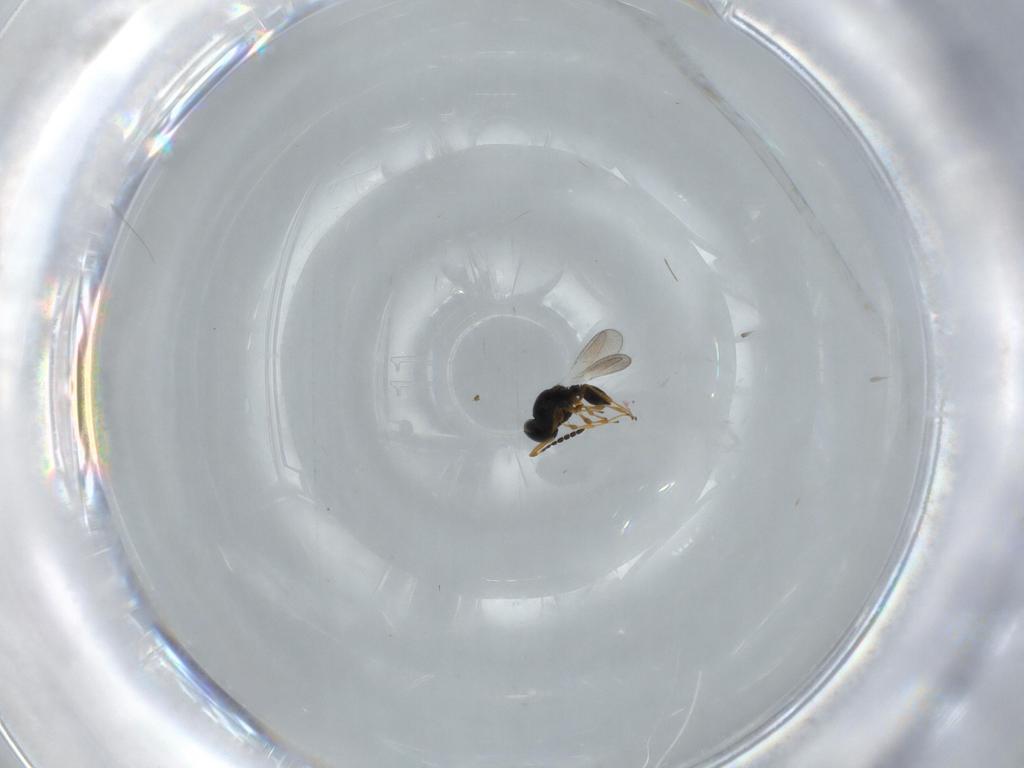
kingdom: Animalia
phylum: Arthropoda
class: Insecta
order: Hymenoptera
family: Platygastridae
